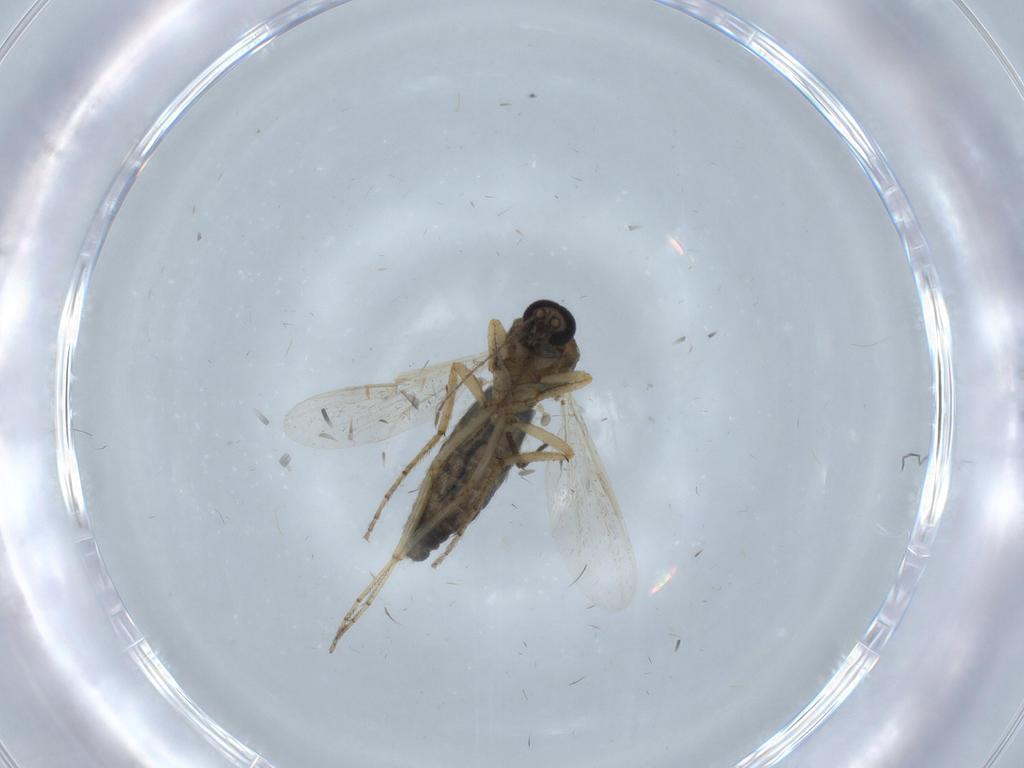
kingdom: Animalia
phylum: Arthropoda
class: Insecta
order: Diptera
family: Ceratopogonidae
